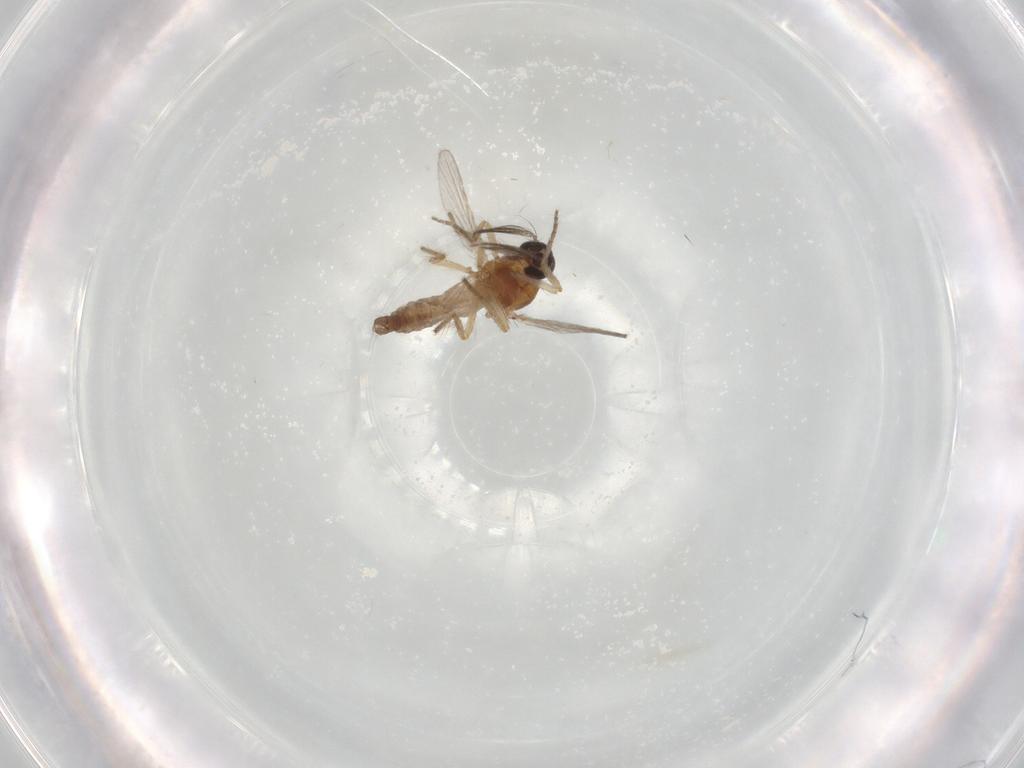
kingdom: Animalia
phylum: Arthropoda
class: Insecta
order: Diptera
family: Ceratopogonidae
